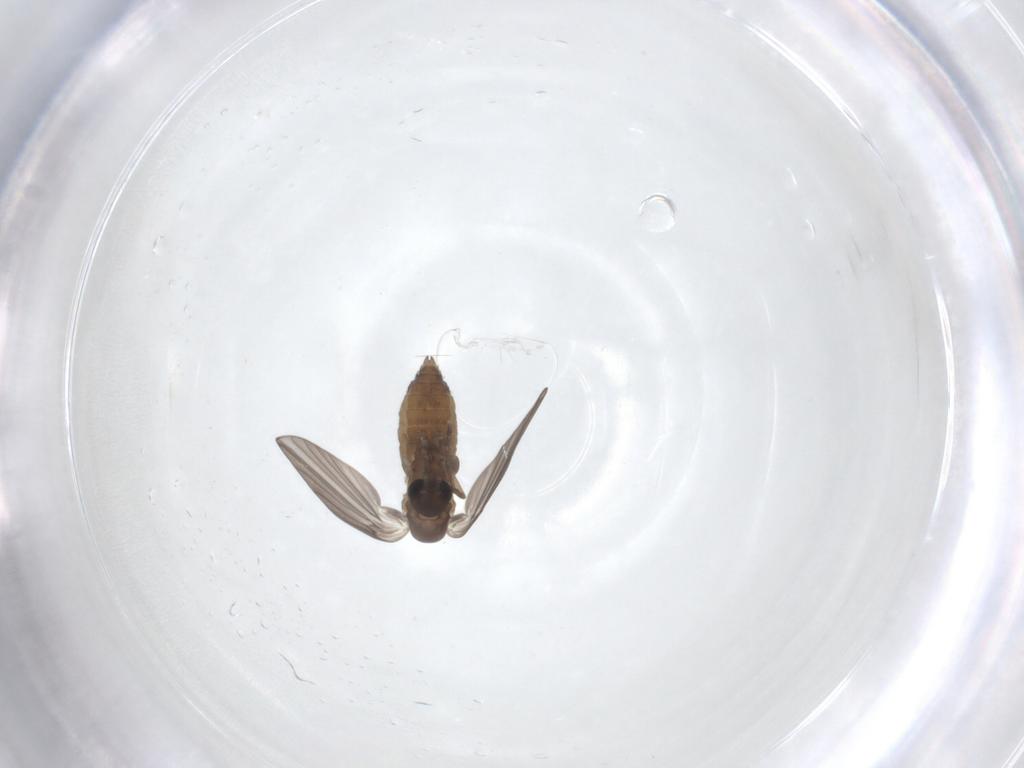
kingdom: Animalia
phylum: Arthropoda
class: Insecta
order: Diptera
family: Psychodidae
